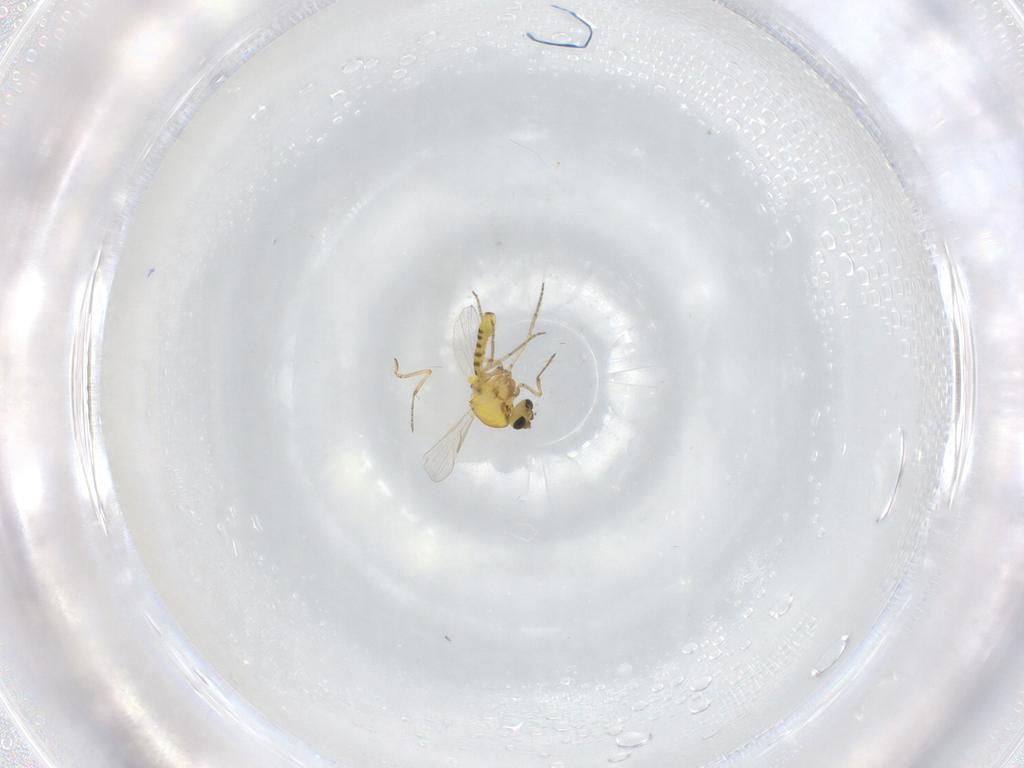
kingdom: Animalia
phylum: Arthropoda
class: Insecta
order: Diptera
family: Ceratopogonidae
